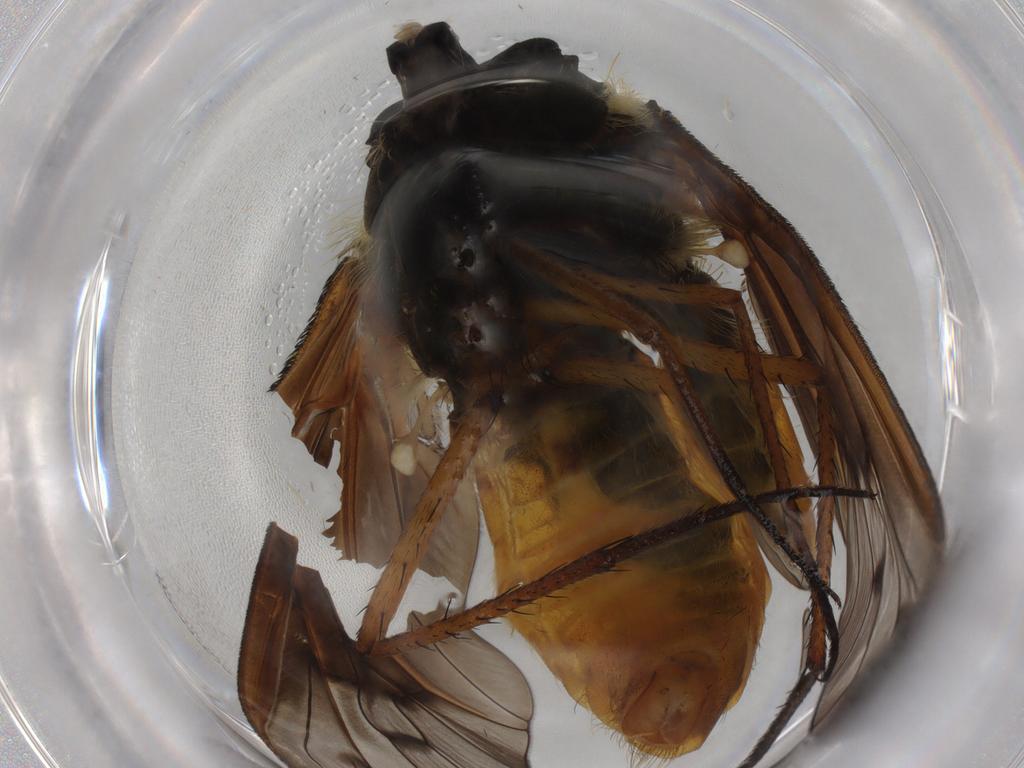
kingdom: Animalia
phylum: Arthropoda
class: Insecta
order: Diptera
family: Bombyliidae
